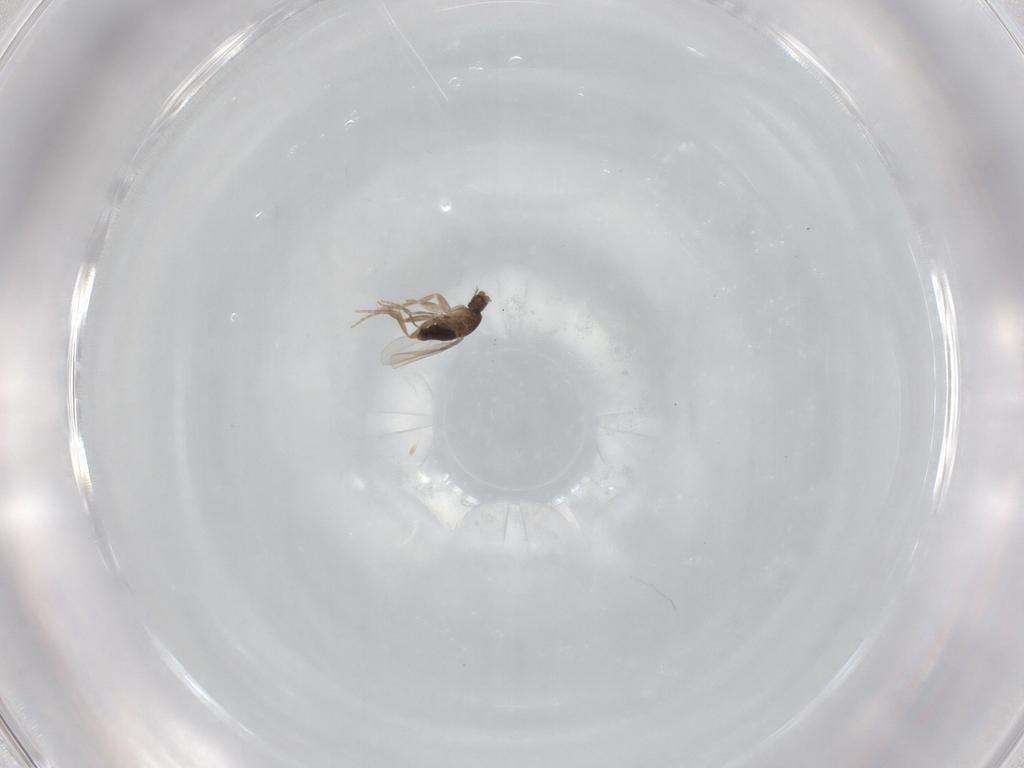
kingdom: Animalia
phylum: Arthropoda
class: Insecta
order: Diptera
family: Phoridae
